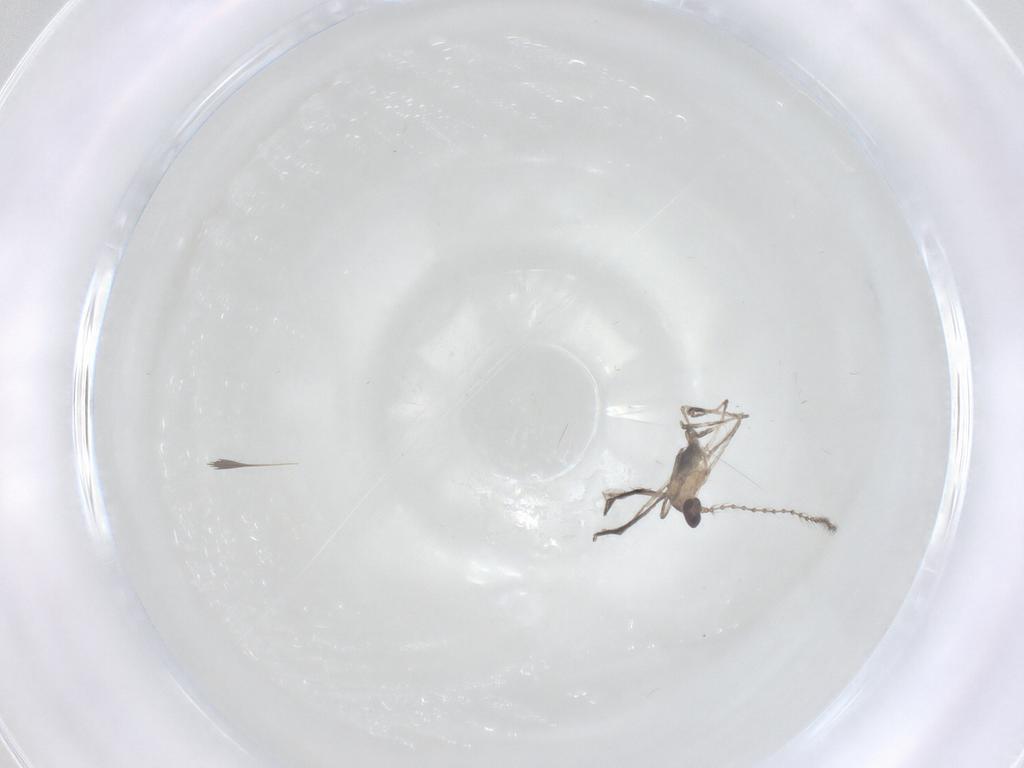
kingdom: Animalia
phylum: Arthropoda
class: Insecta
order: Diptera
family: Cecidomyiidae
